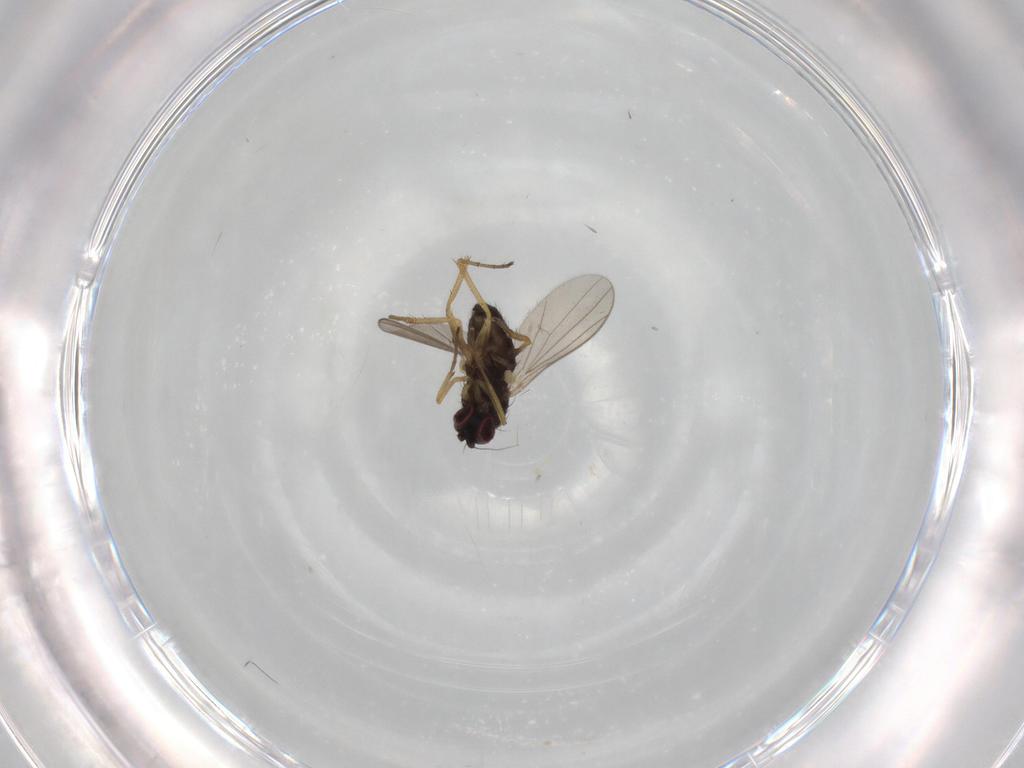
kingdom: Animalia
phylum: Arthropoda
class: Insecta
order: Diptera
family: Dolichopodidae
